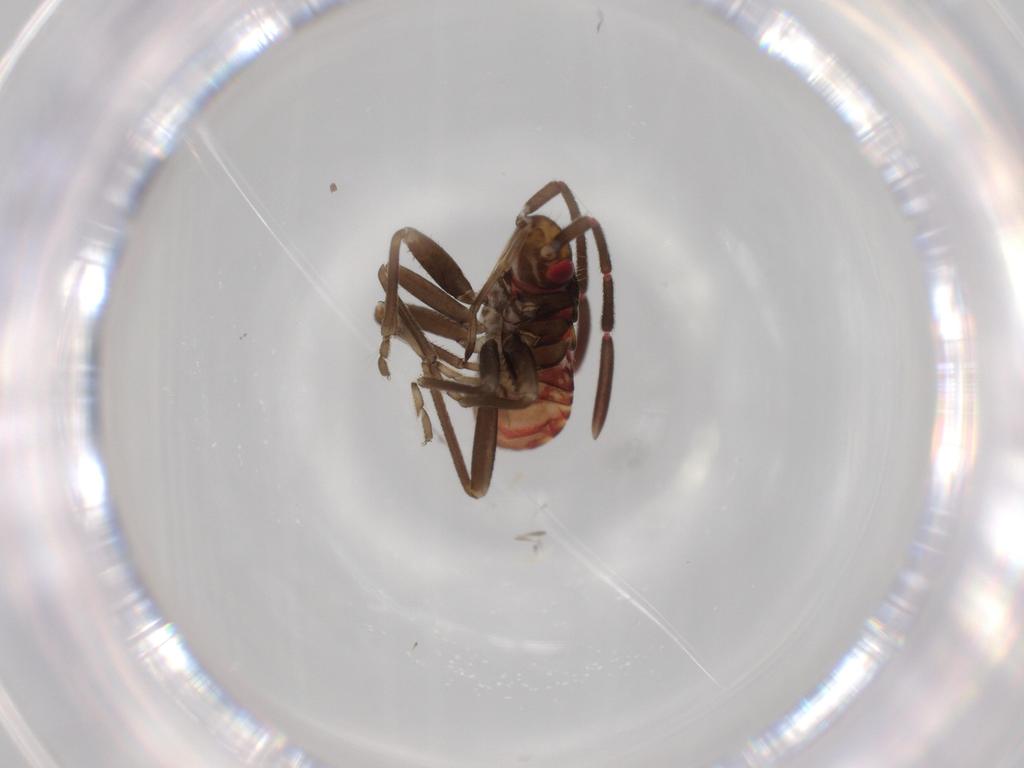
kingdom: Animalia
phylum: Arthropoda
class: Insecta
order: Hemiptera
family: Rhyparochromidae
